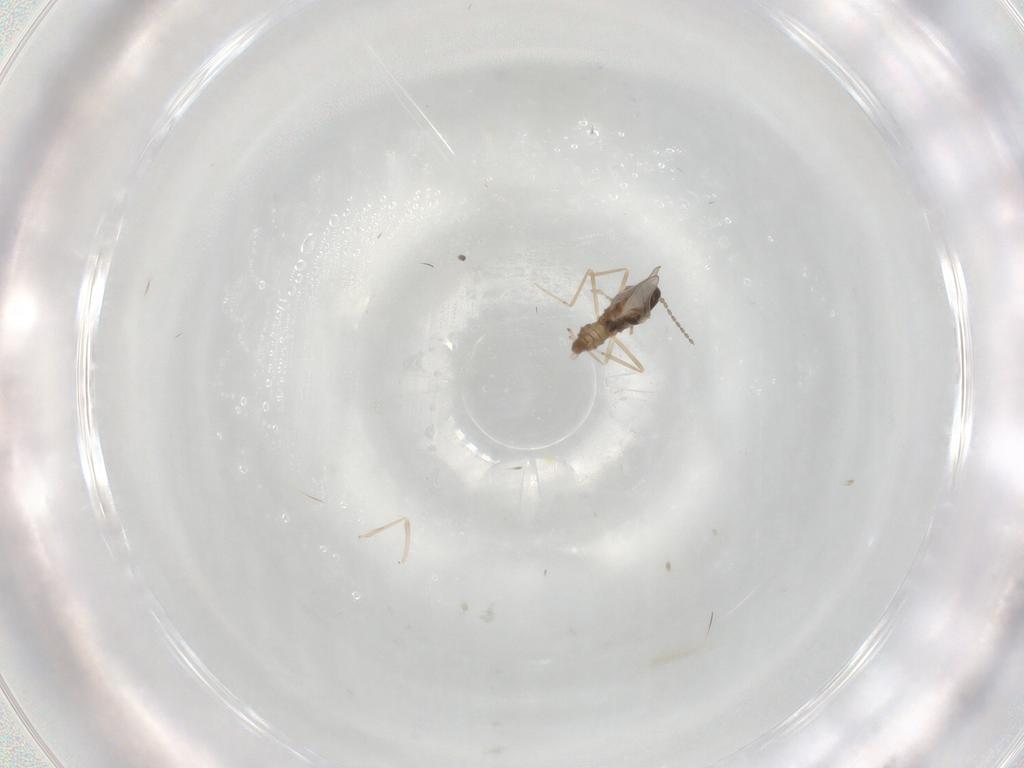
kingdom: Animalia
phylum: Arthropoda
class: Insecta
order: Diptera
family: Cecidomyiidae
